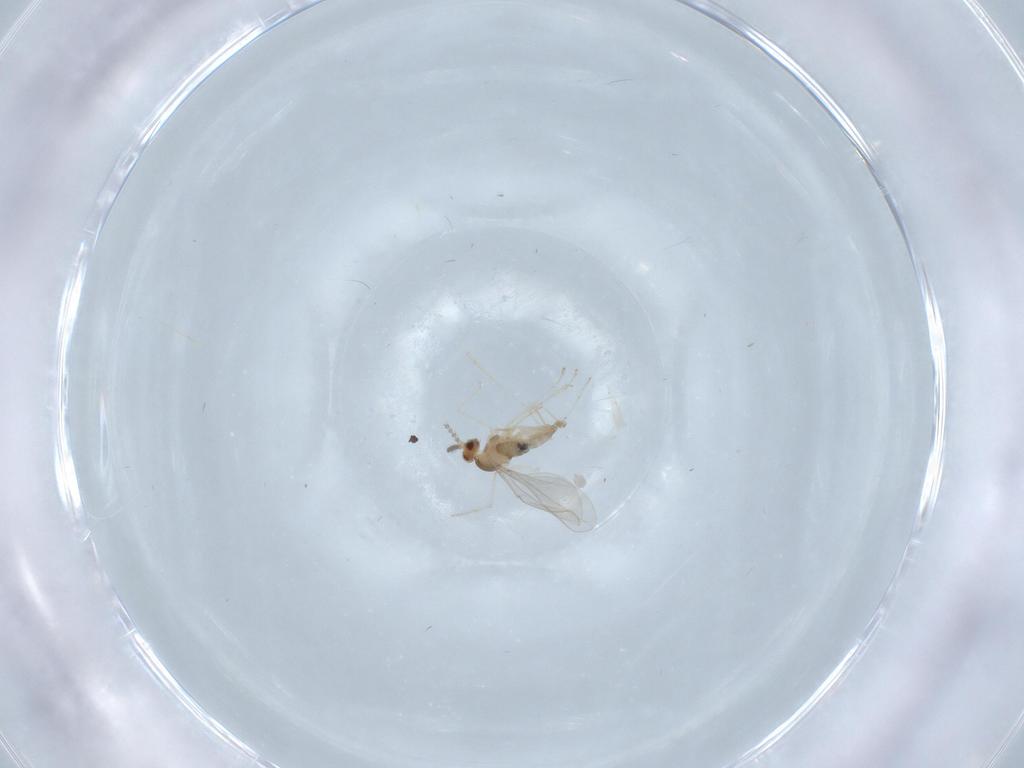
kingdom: Animalia
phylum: Arthropoda
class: Insecta
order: Diptera
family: Cecidomyiidae
